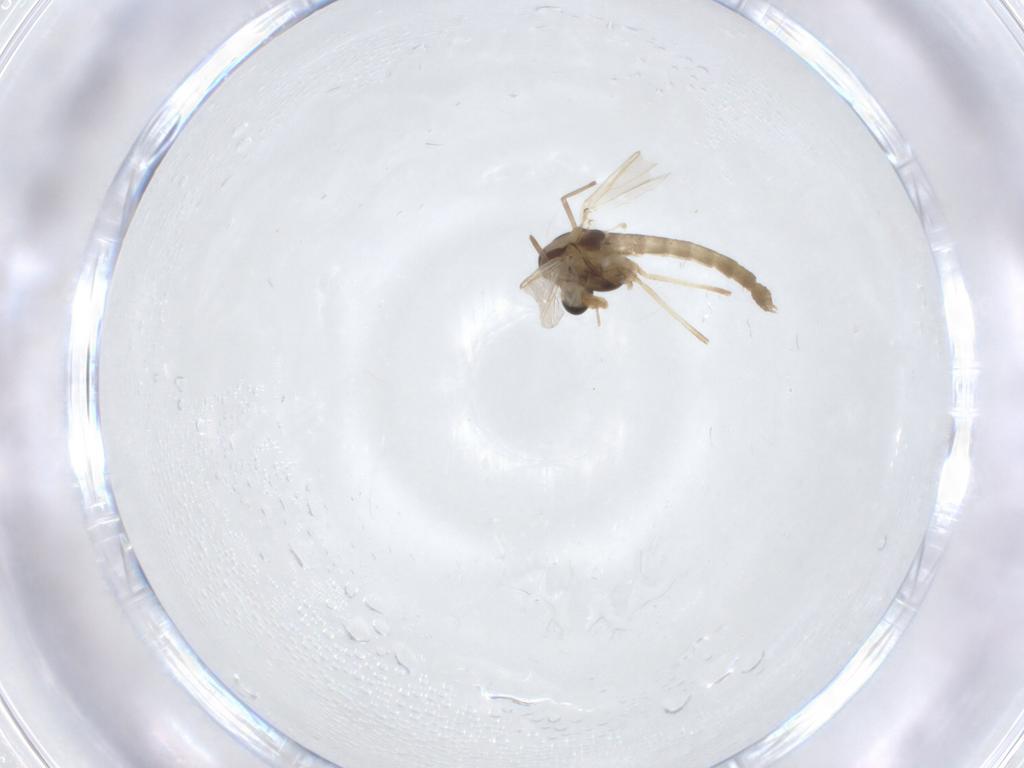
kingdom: Animalia
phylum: Arthropoda
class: Insecta
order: Diptera
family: Chironomidae
